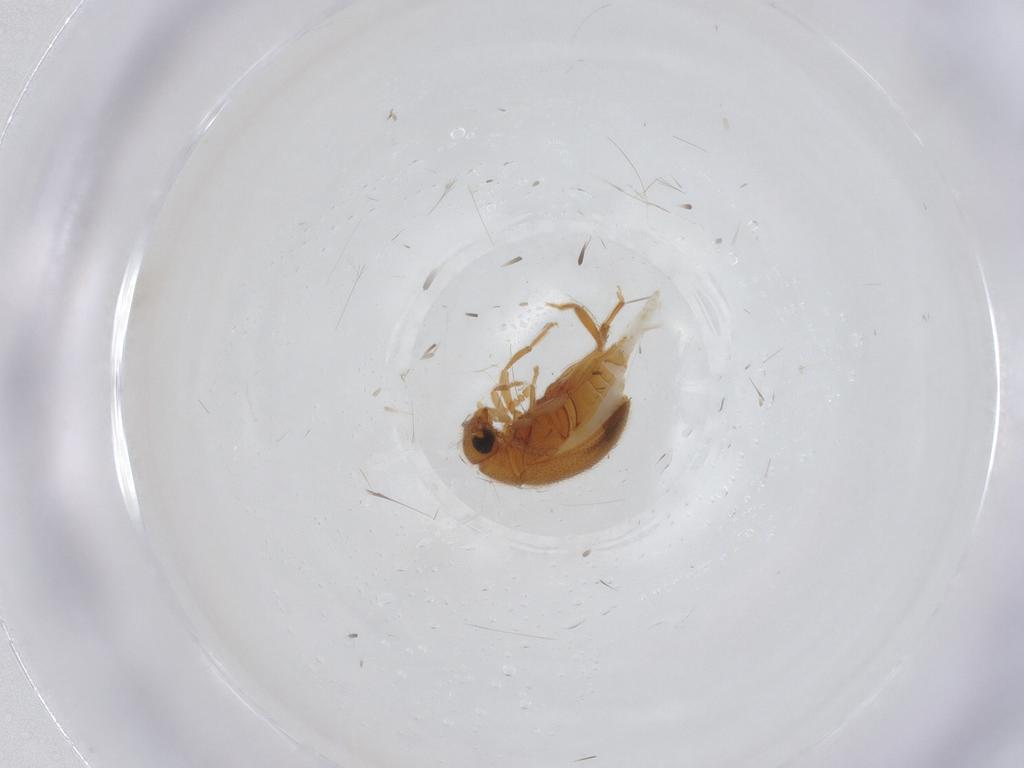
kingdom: Animalia
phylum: Arthropoda
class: Insecta
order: Coleoptera
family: Aderidae
